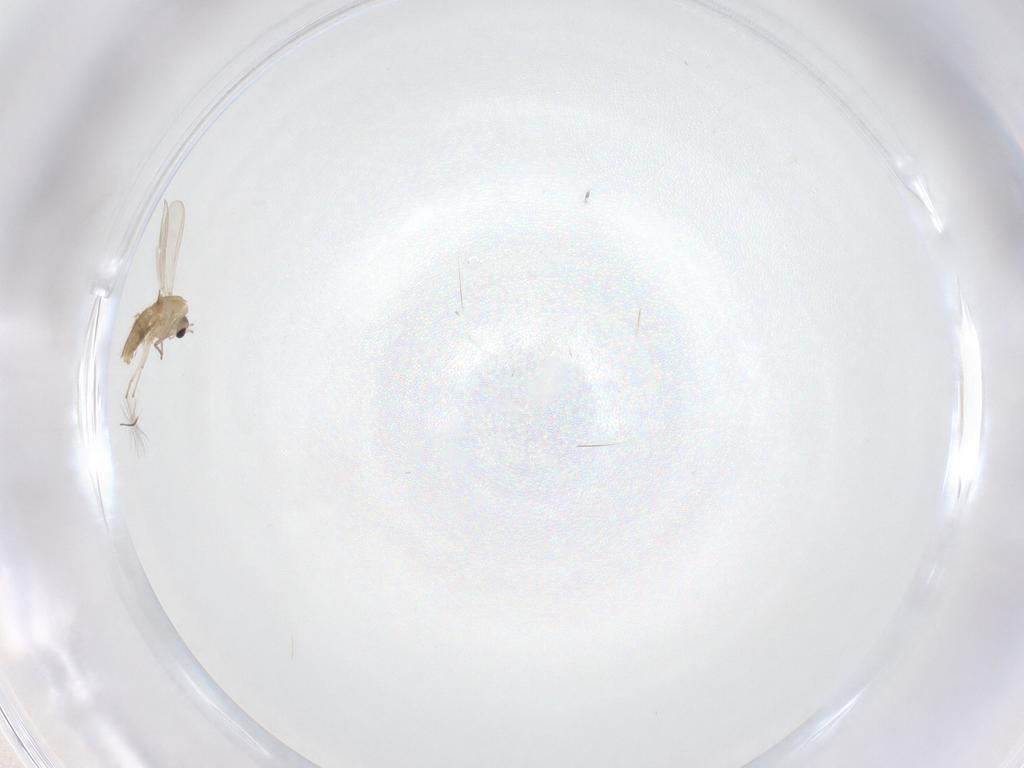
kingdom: Animalia
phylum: Arthropoda
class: Insecta
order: Diptera
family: Chironomidae
